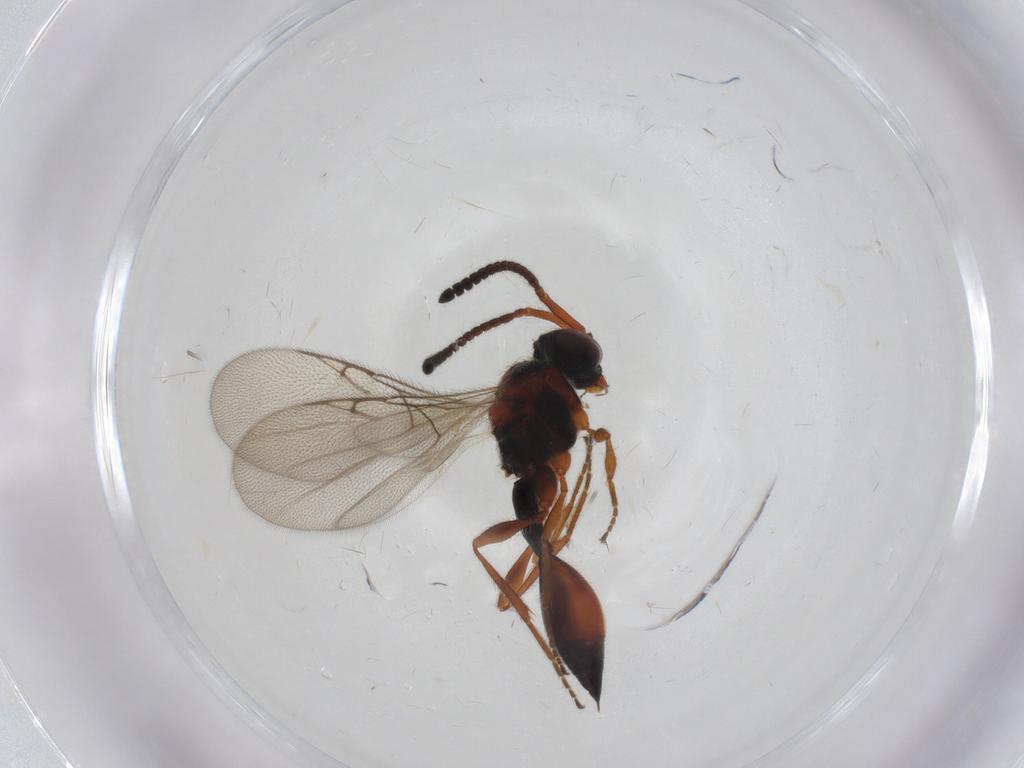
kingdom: Animalia
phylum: Arthropoda
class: Insecta
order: Hymenoptera
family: Diapriidae
